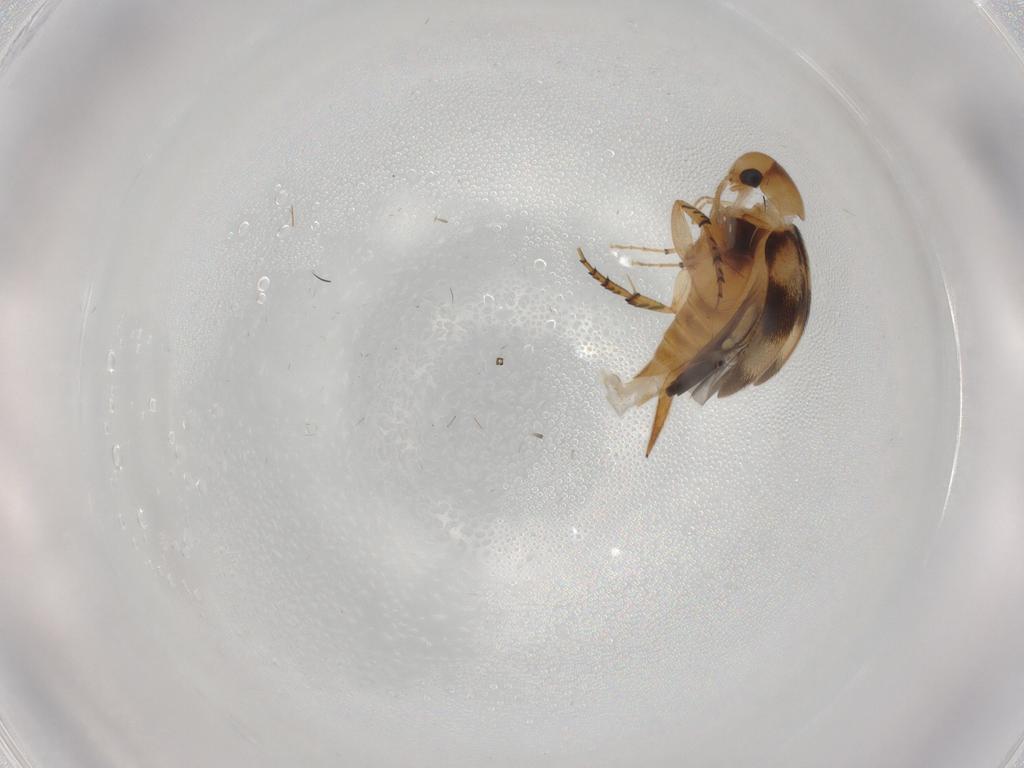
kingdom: Animalia
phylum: Arthropoda
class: Insecta
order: Coleoptera
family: Mordellidae
